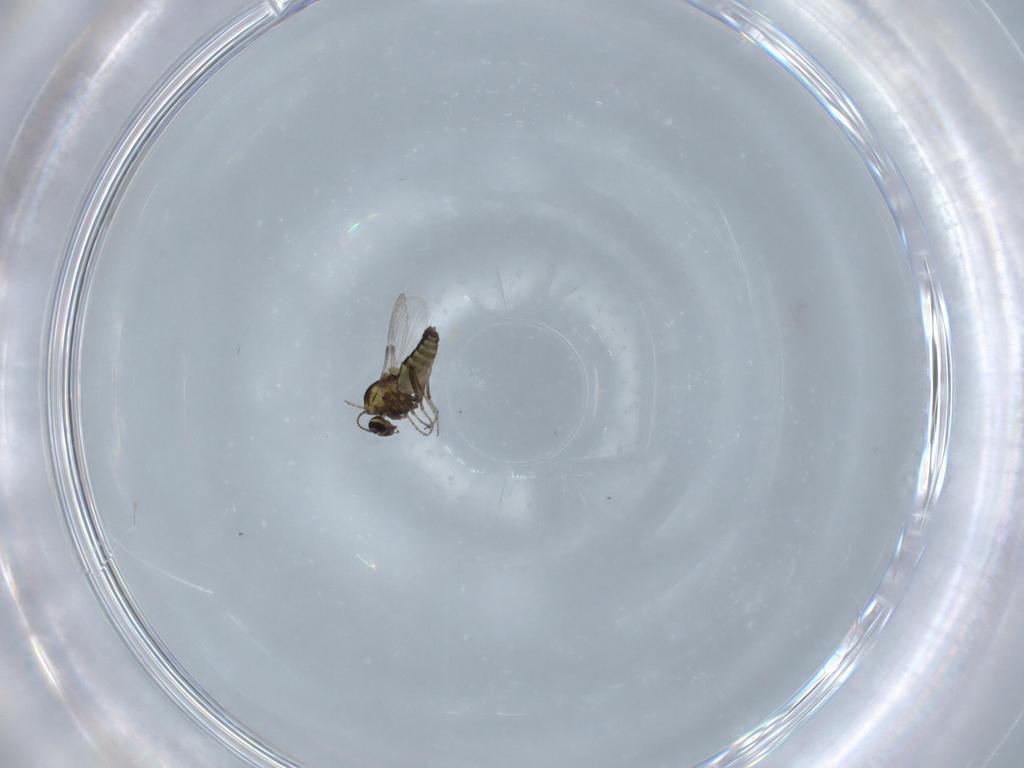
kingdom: Animalia
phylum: Arthropoda
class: Insecta
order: Diptera
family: Ceratopogonidae
